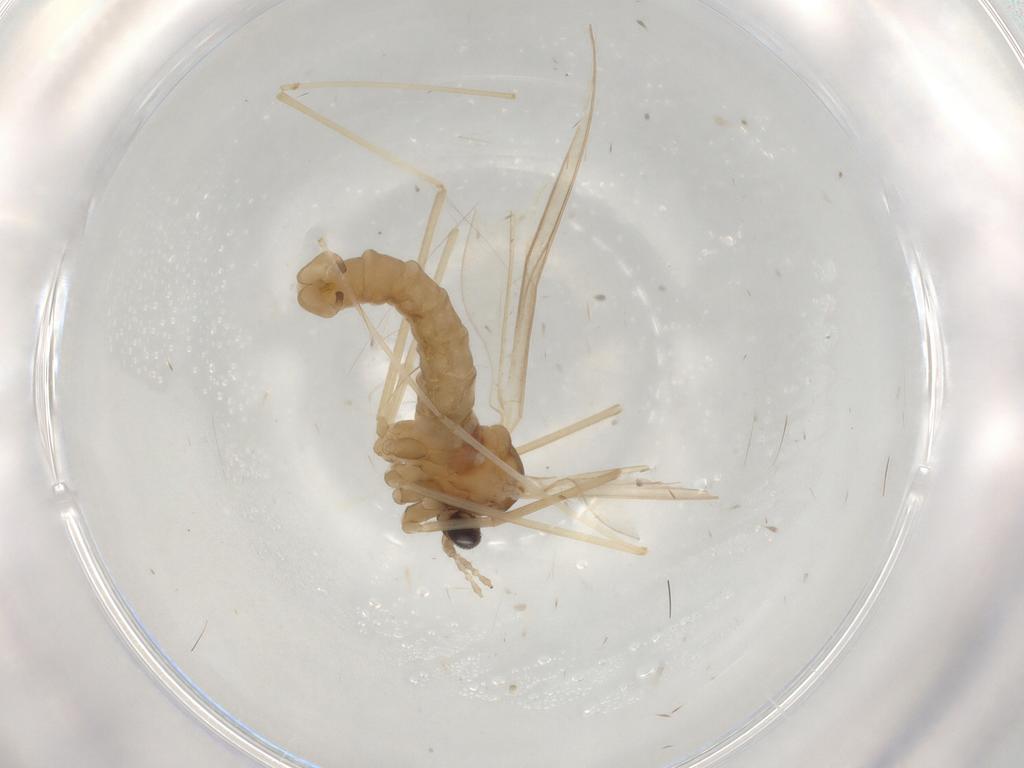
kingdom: Animalia
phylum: Arthropoda
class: Insecta
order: Diptera
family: Cecidomyiidae
